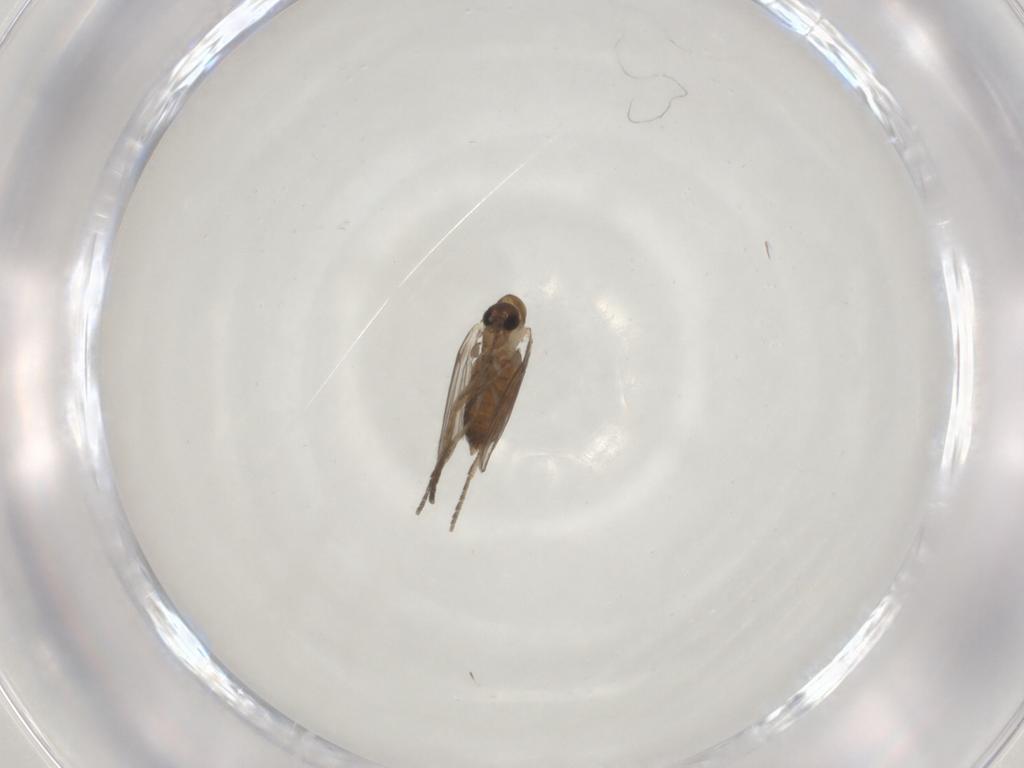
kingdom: Animalia
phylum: Arthropoda
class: Insecta
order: Diptera
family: Psychodidae
